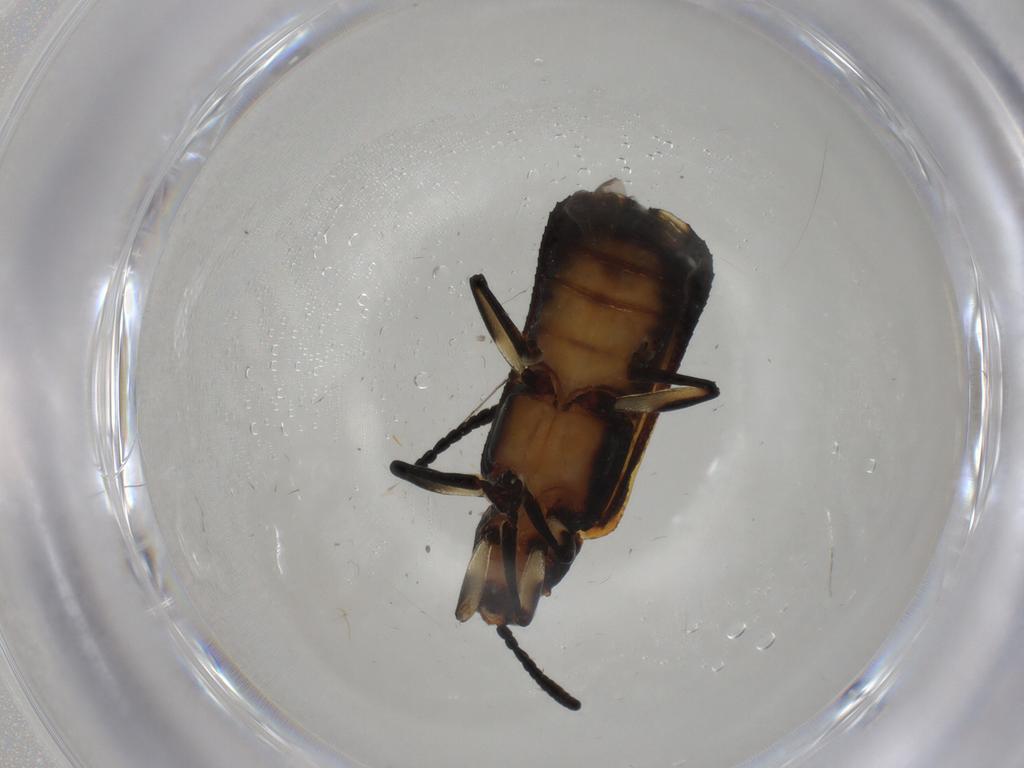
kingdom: Animalia
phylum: Arthropoda
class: Insecta
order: Coleoptera
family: Chrysomelidae
